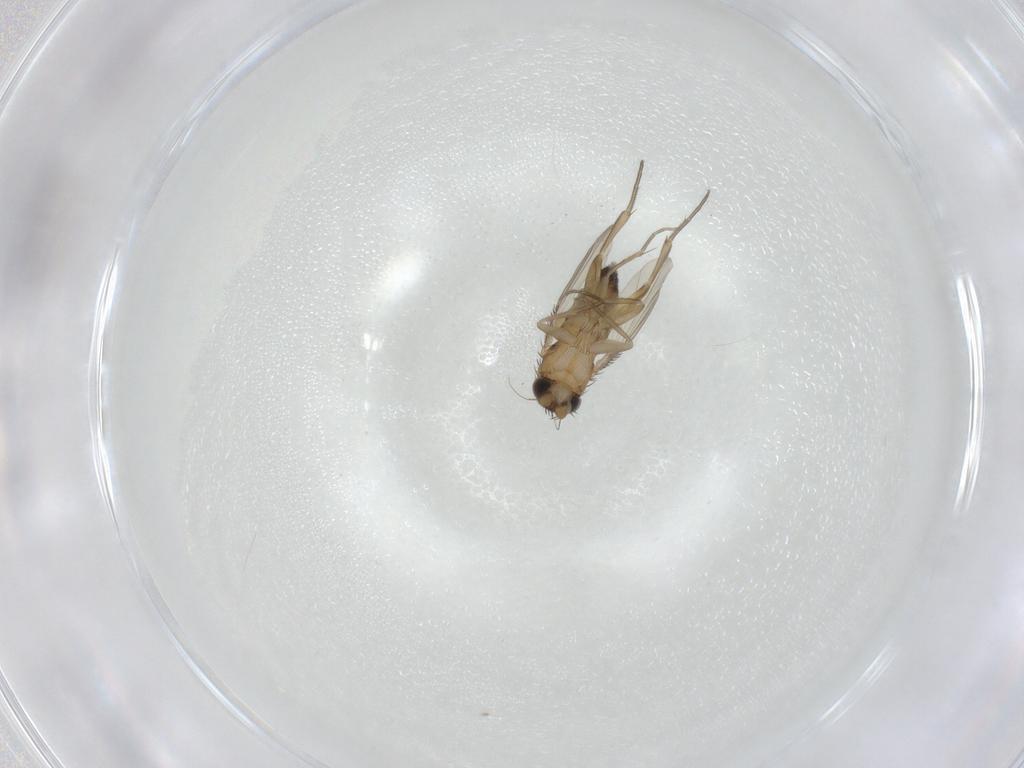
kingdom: Animalia
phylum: Arthropoda
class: Insecta
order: Diptera
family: Phoridae
